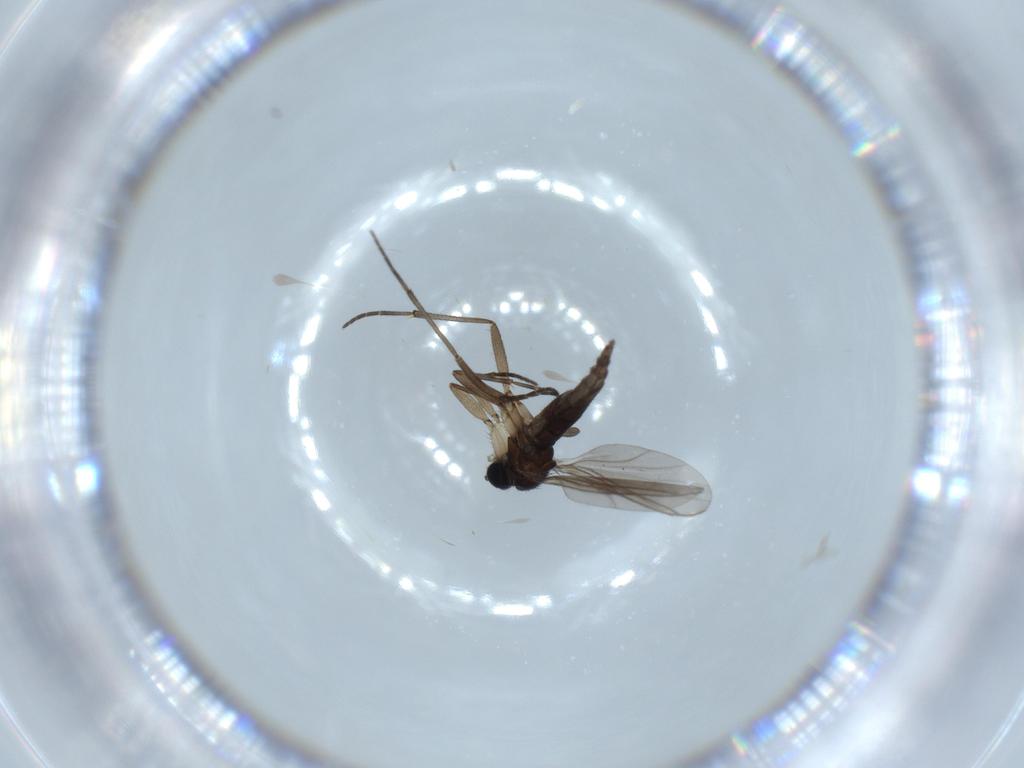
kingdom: Animalia
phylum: Arthropoda
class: Insecta
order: Diptera
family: Sciaridae
